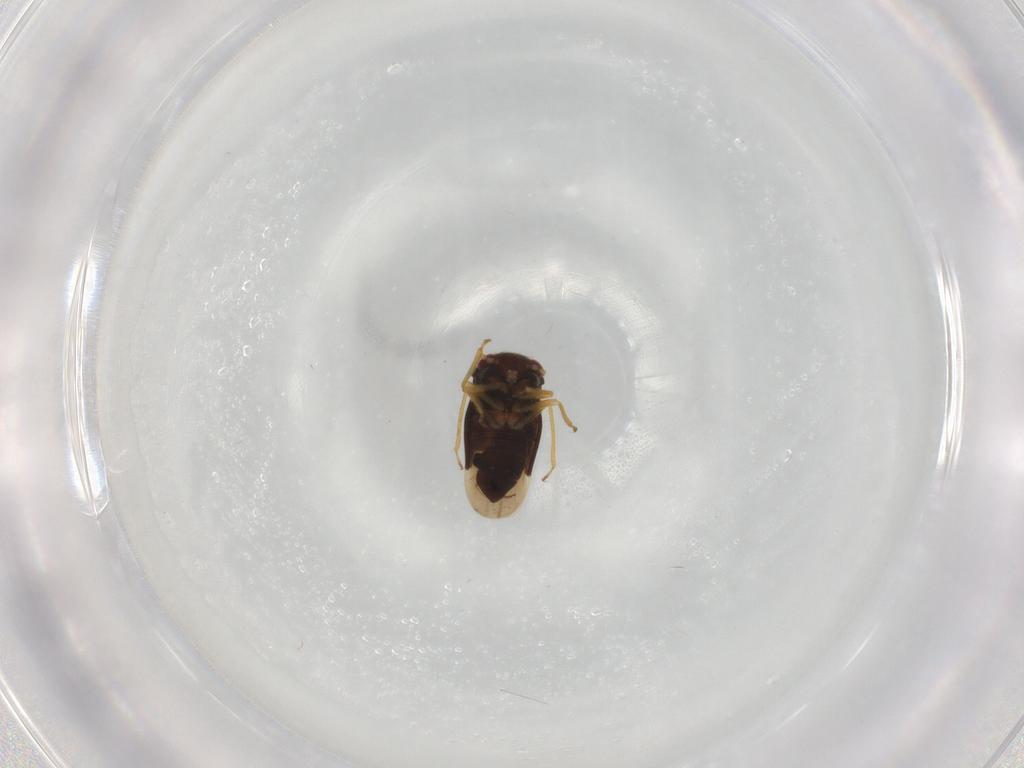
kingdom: Animalia
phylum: Arthropoda
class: Insecta
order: Hemiptera
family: Schizopteridae
